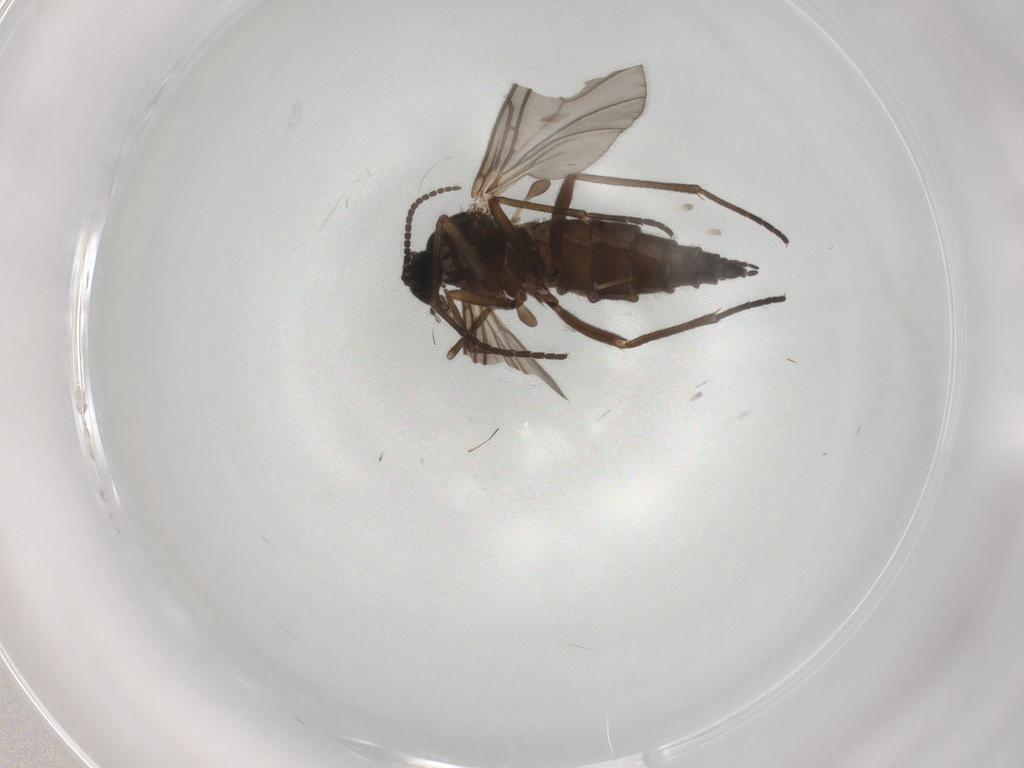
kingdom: Animalia
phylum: Arthropoda
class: Insecta
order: Diptera
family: Sciaridae
